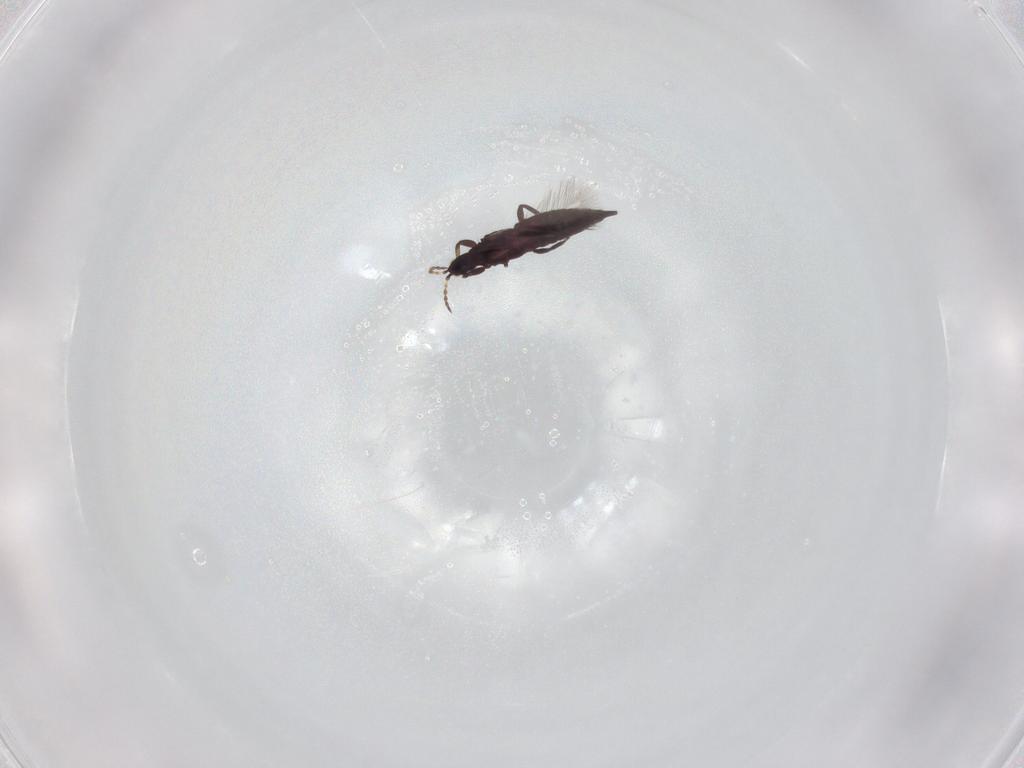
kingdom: Animalia
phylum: Arthropoda
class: Insecta
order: Thysanoptera
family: Phlaeothripidae
